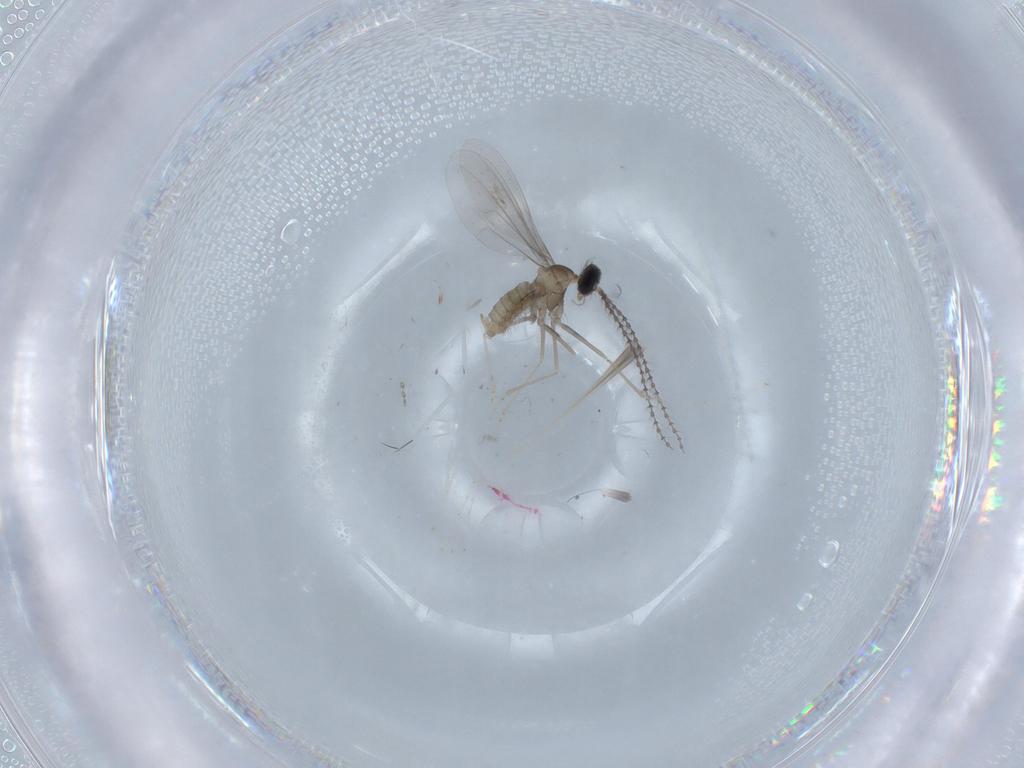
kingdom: Animalia
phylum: Arthropoda
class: Insecta
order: Diptera
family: Cecidomyiidae
